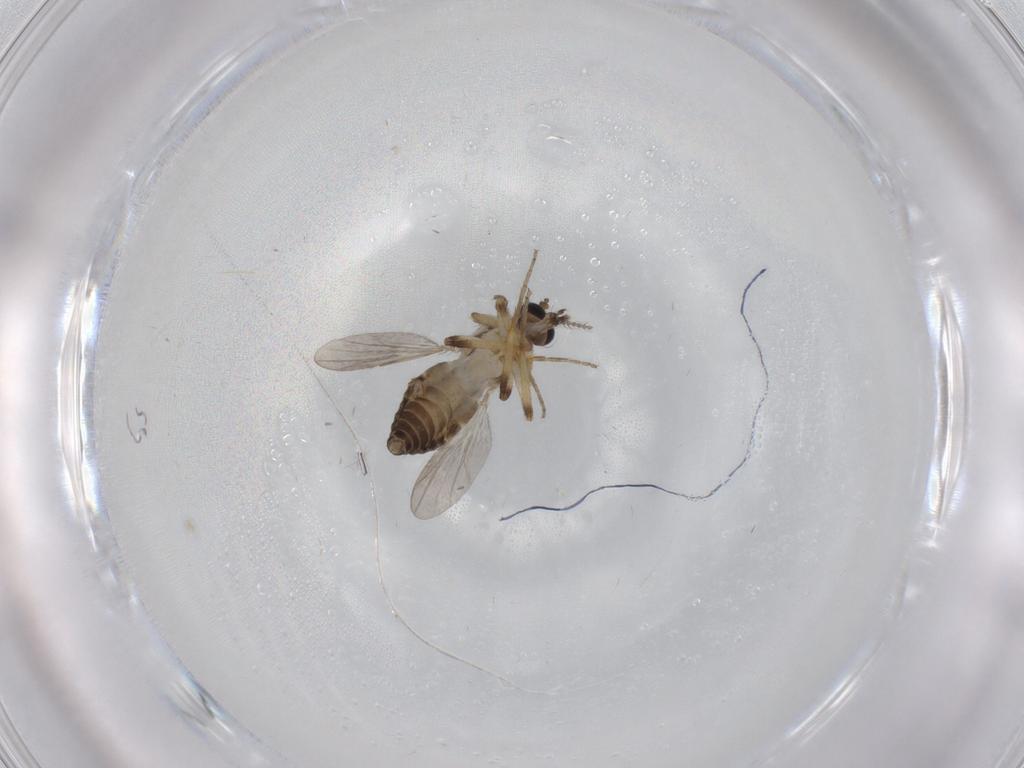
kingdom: Animalia
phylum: Arthropoda
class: Insecta
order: Diptera
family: Ceratopogonidae
